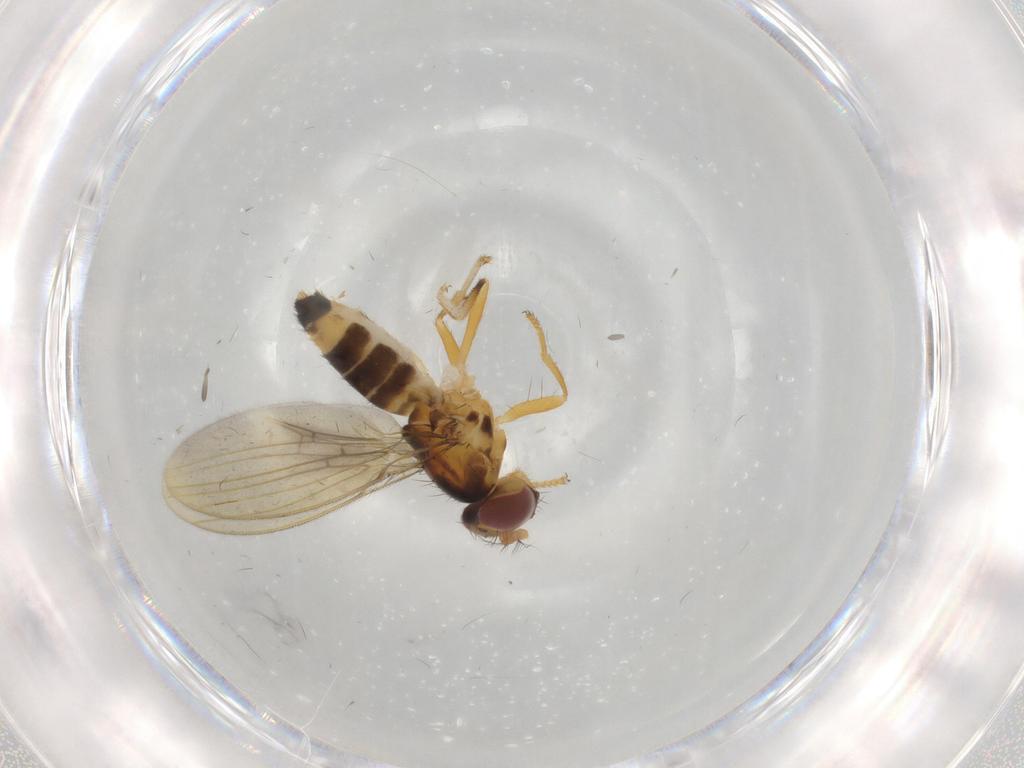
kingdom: Animalia
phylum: Arthropoda
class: Insecta
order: Diptera
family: Periscelididae
